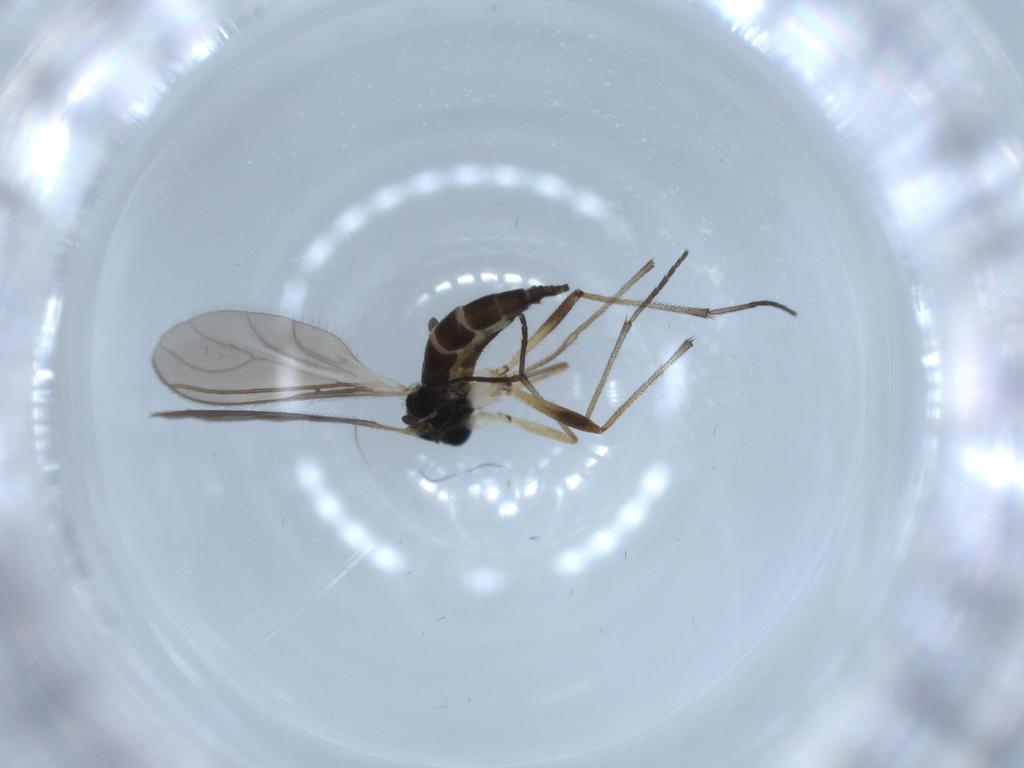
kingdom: Animalia
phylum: Arthropoda
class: Insecta
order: Diptera
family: Sciaridae
